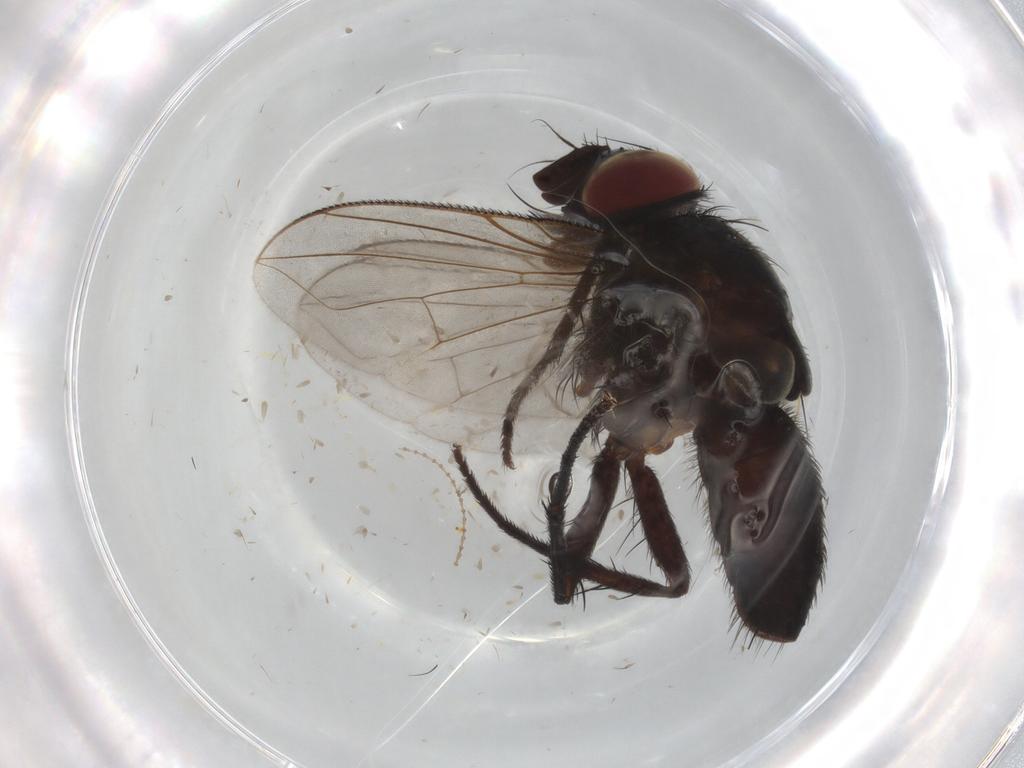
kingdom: Animalia
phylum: Arthropoda
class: Insecta
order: Diptera
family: Tachinidae
